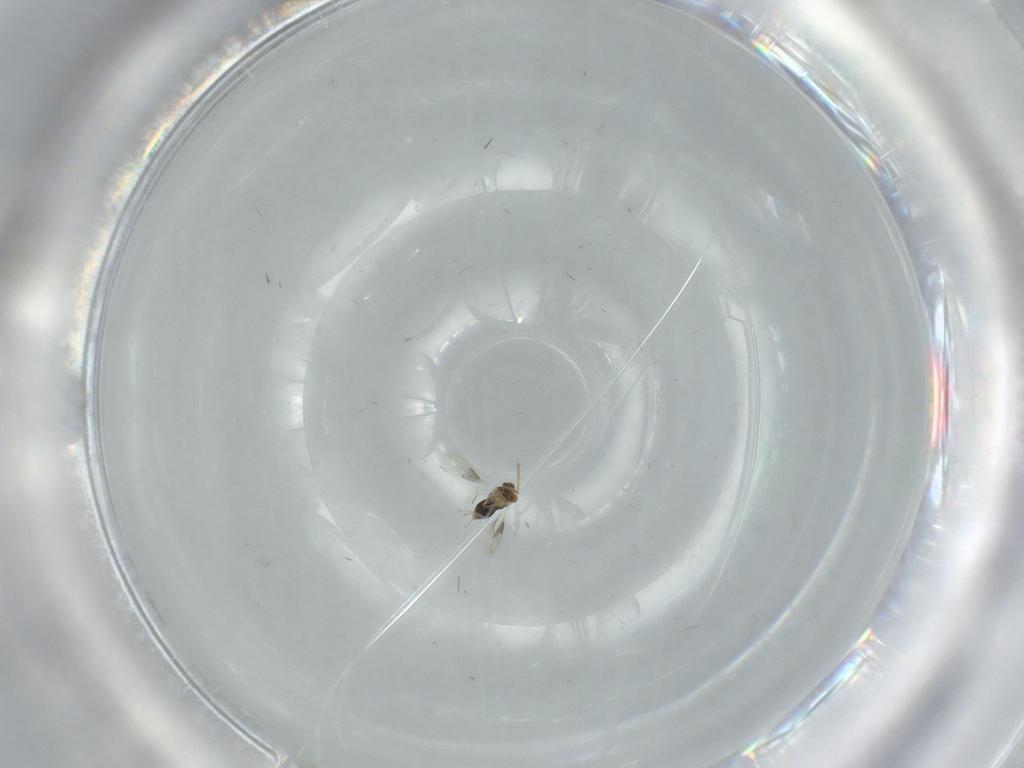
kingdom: Animalia
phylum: Arthropoda
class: Insecta
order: Hymenoptera
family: Aphelinidae
